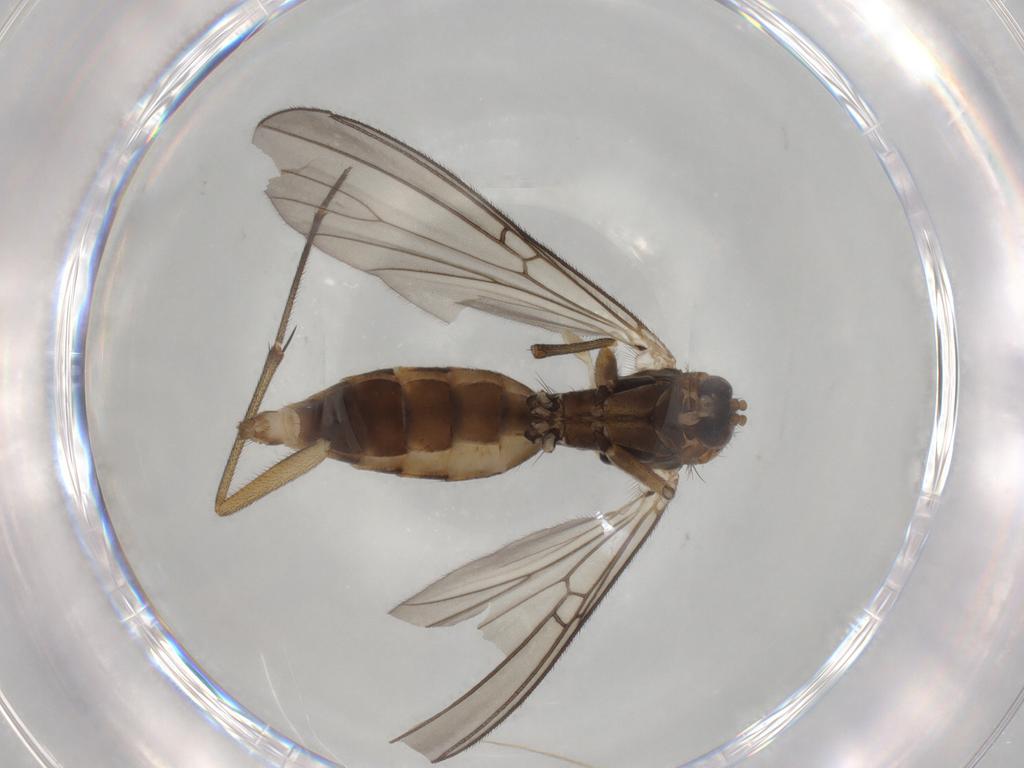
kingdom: Animalia
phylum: Arthropoda
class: Insecta
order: Diptera
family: Mycetophilidae
